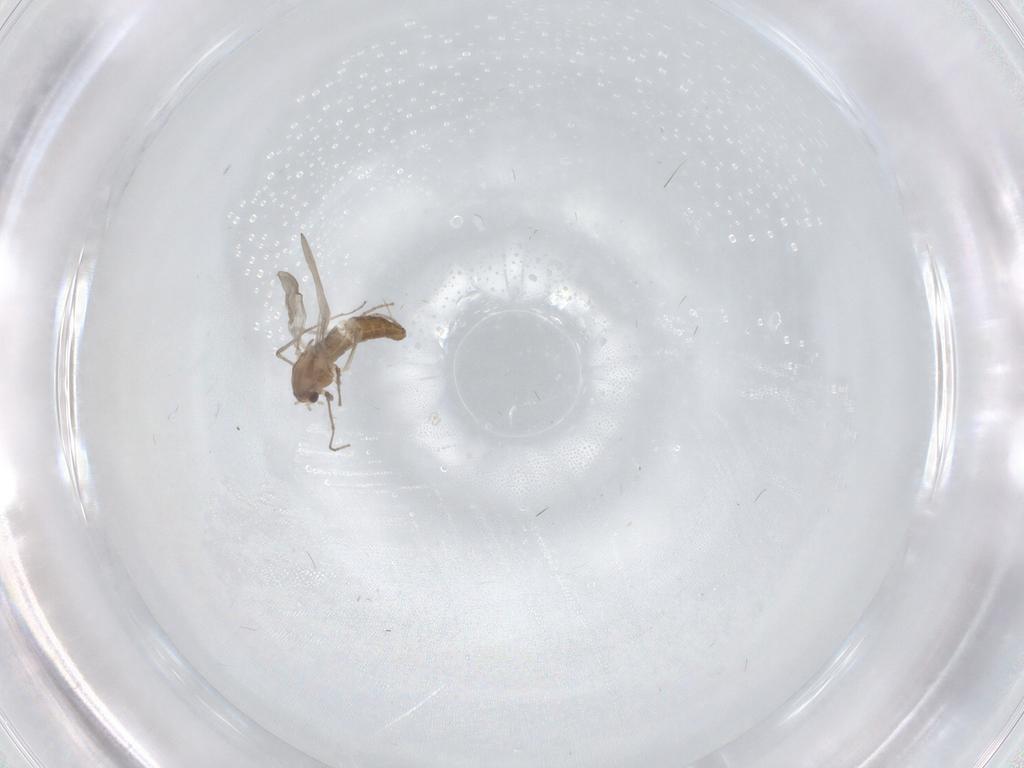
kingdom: Animalia
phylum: Arthropoda
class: Insecta
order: Diptera
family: Chironomidae
